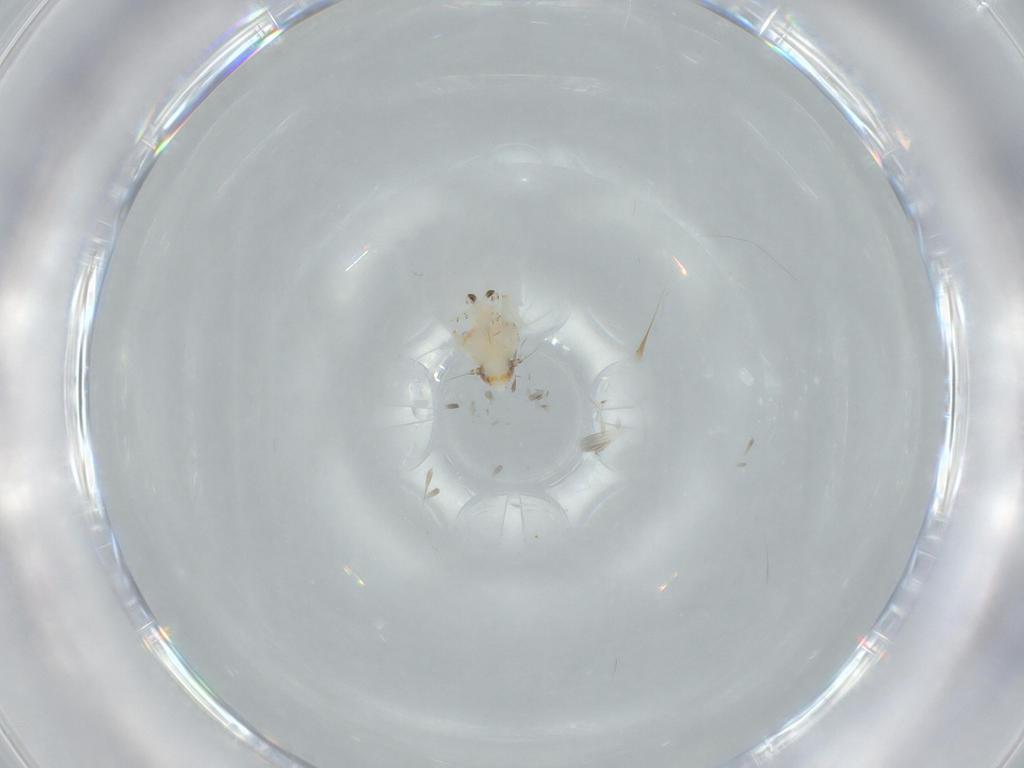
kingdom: Animalia
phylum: Arthropoda
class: Insecta
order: Hemiptera
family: Nogodinidae
